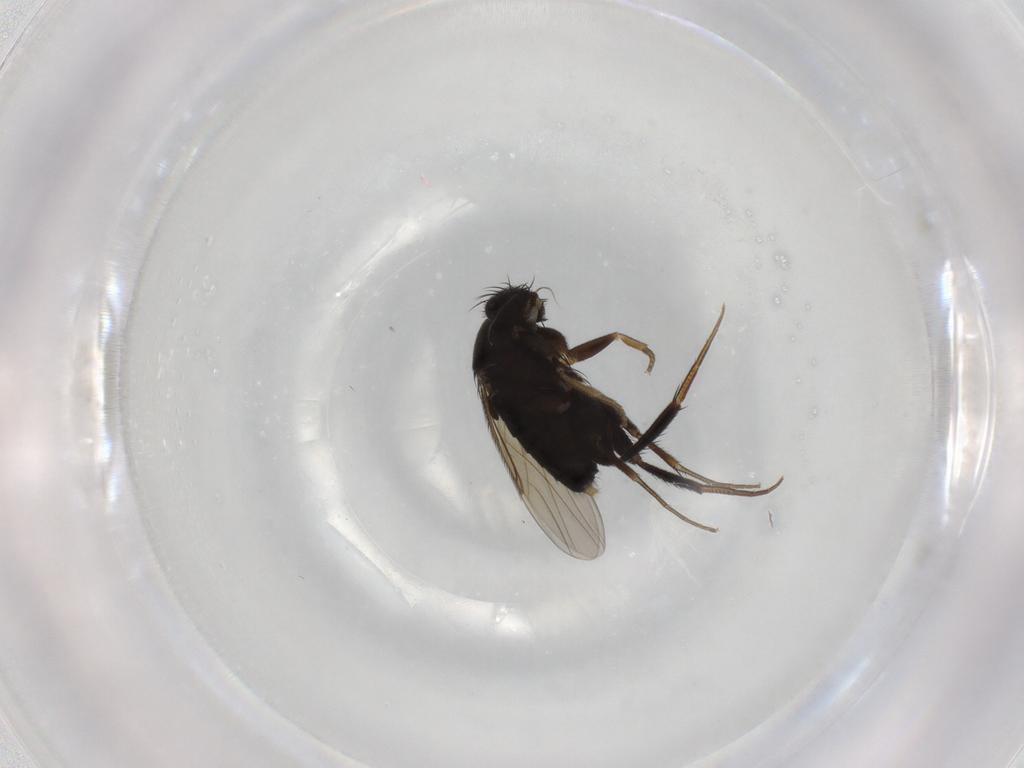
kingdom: Animalia
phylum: Arthropoda
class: Insecta
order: Diptera
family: Phoridae
